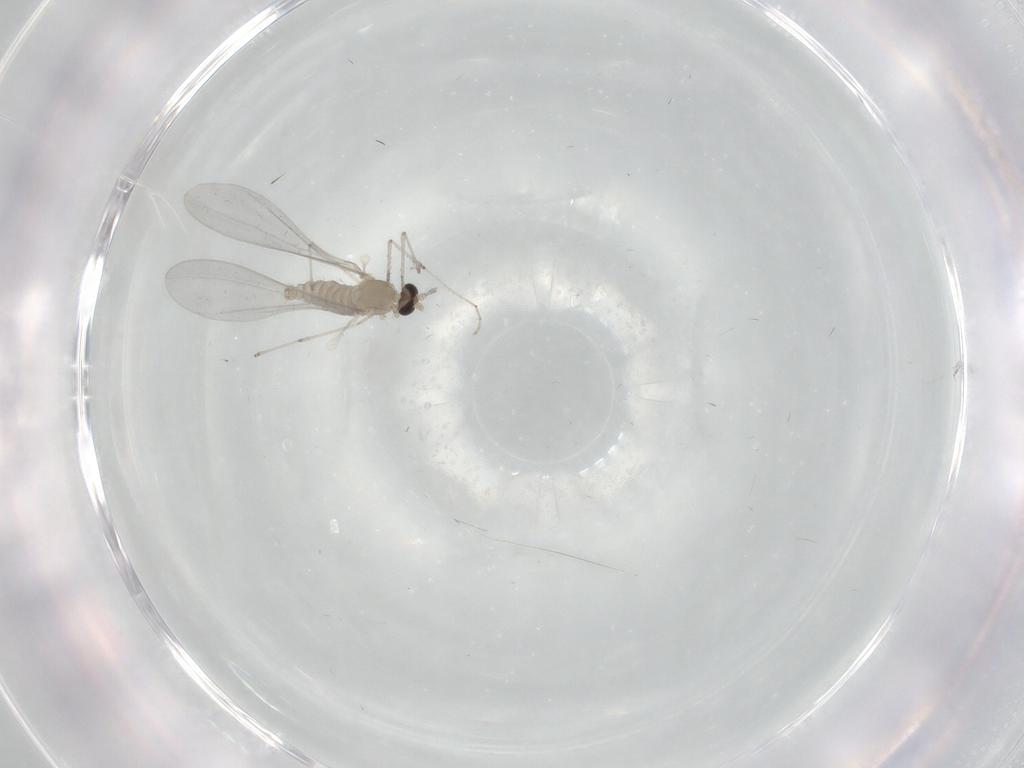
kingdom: Animalia
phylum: Arthropoda
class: Insecta
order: Diptera
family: Cecidomyiidae
